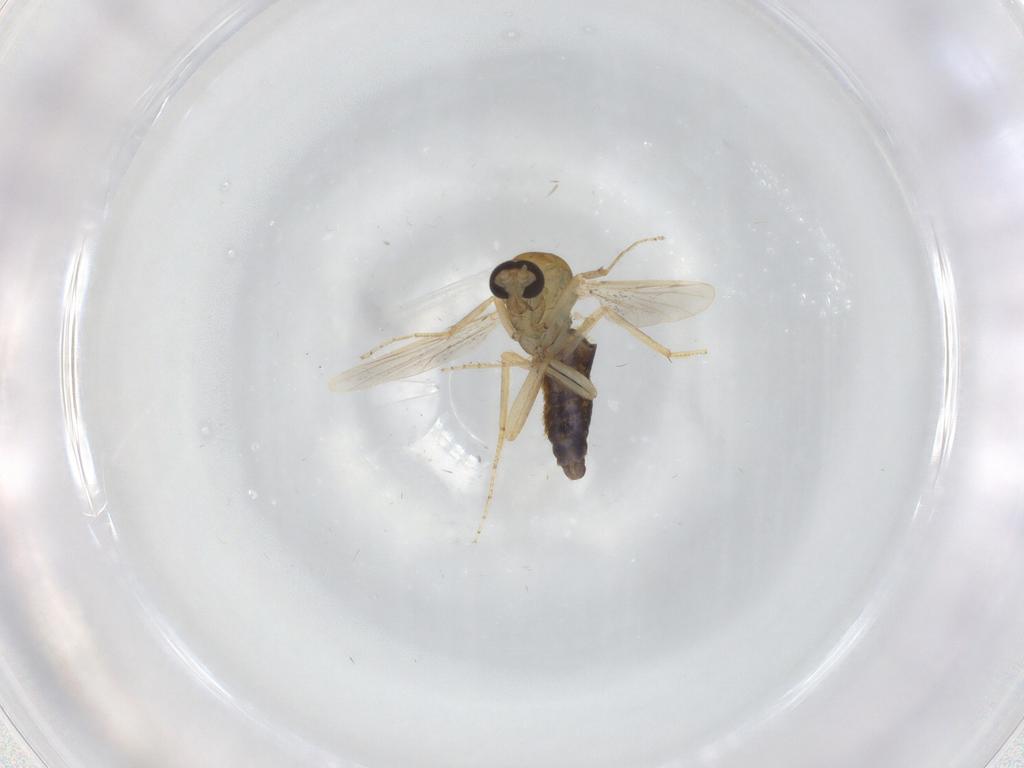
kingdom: Animalia
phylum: Arthropoda
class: Insecta
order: Diptera
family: Ceratopogonidae
